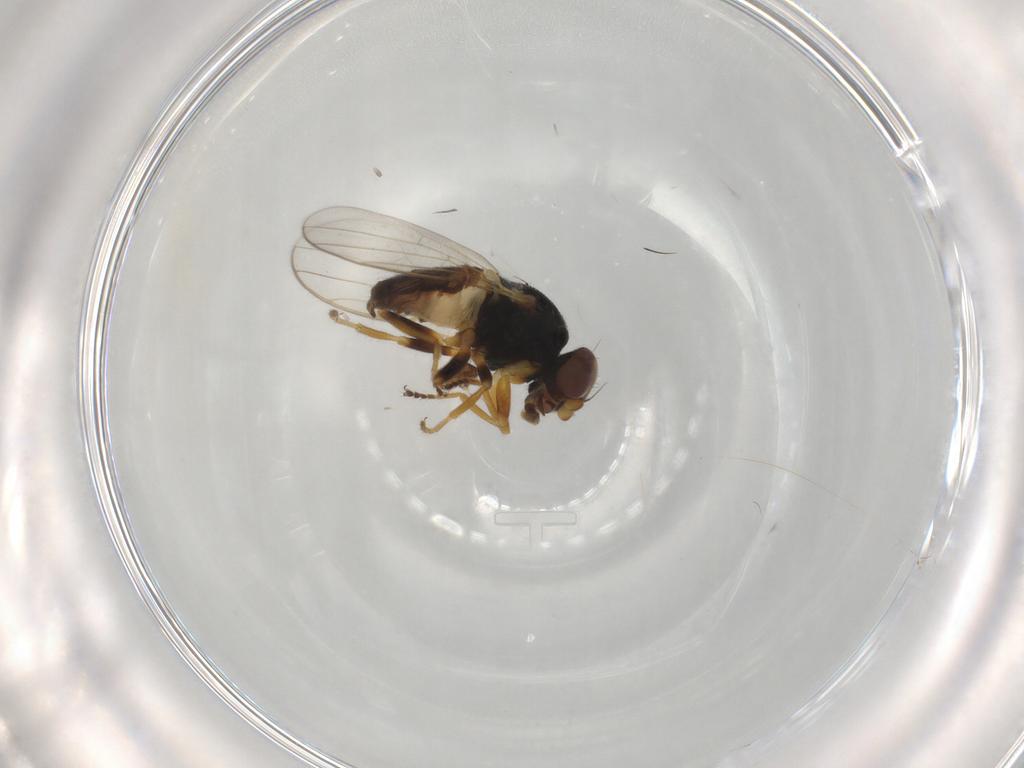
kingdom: Animalia
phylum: Arthropoda
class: Insecta
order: Diptera
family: Chloropidae
